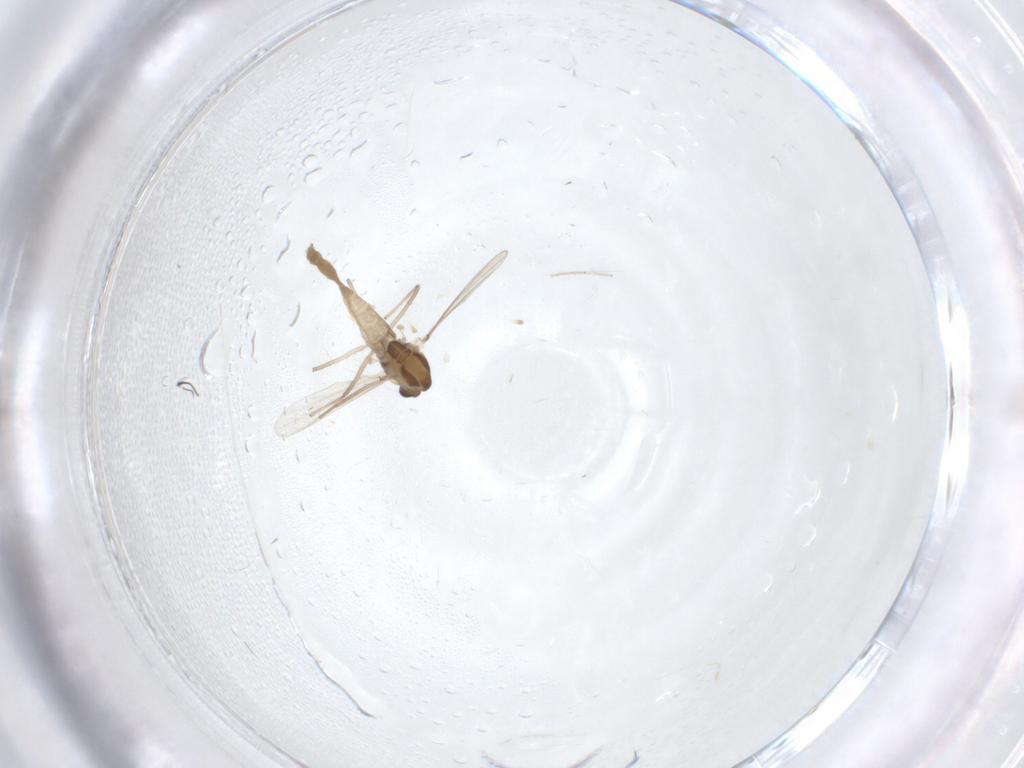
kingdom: Animalia
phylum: Arthropoda
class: Insecta
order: Diptera
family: Chironomidae
